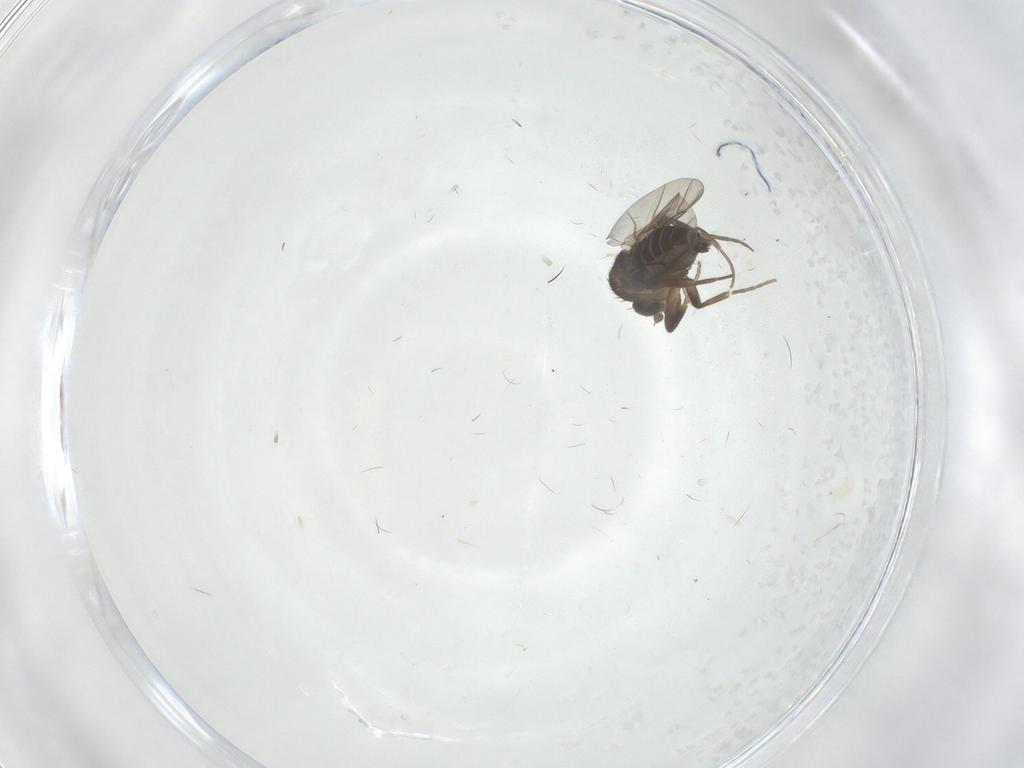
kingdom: Animalia
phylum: Arthropoda
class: Insecta
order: Diptera
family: Phoridae
